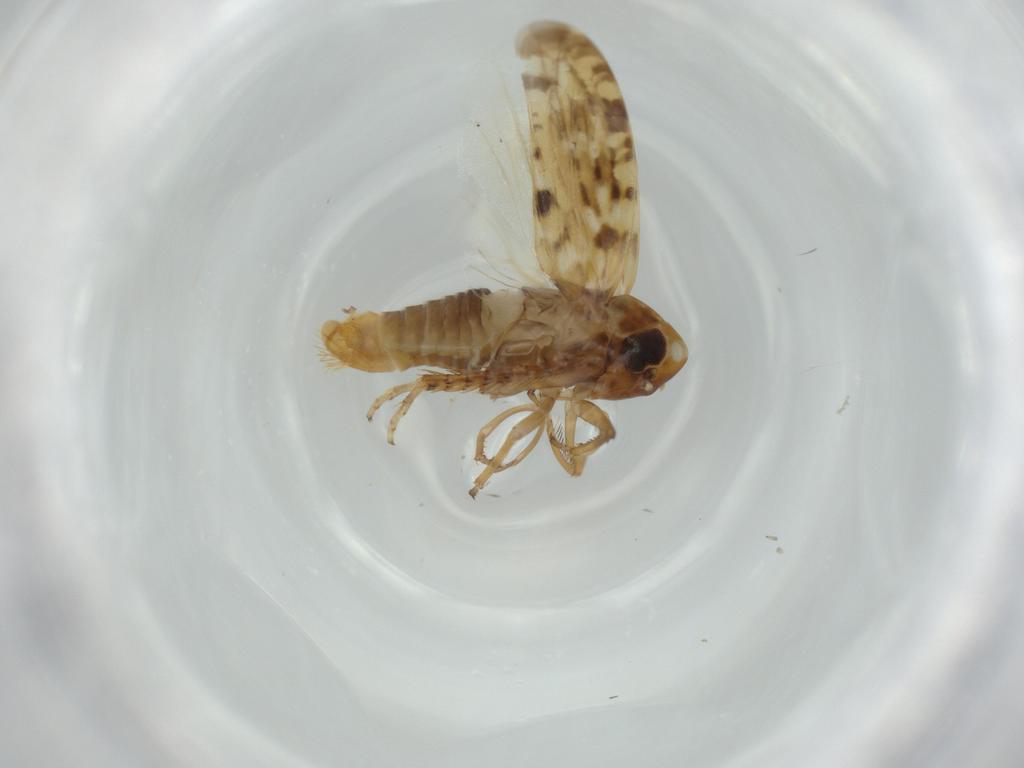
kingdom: Animalia
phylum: Arthropoda
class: Insecta
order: Hemiptera
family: Cicadellidae
